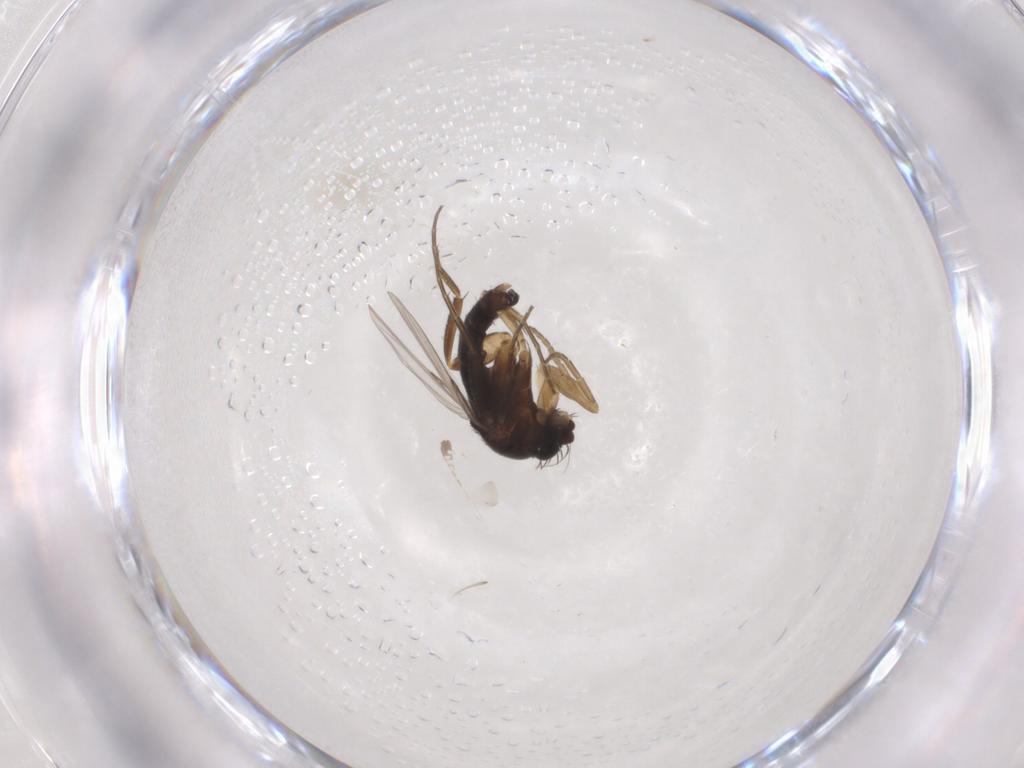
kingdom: Animalia
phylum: Arthropoda
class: Insecta
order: Diptera
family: Phoridae
